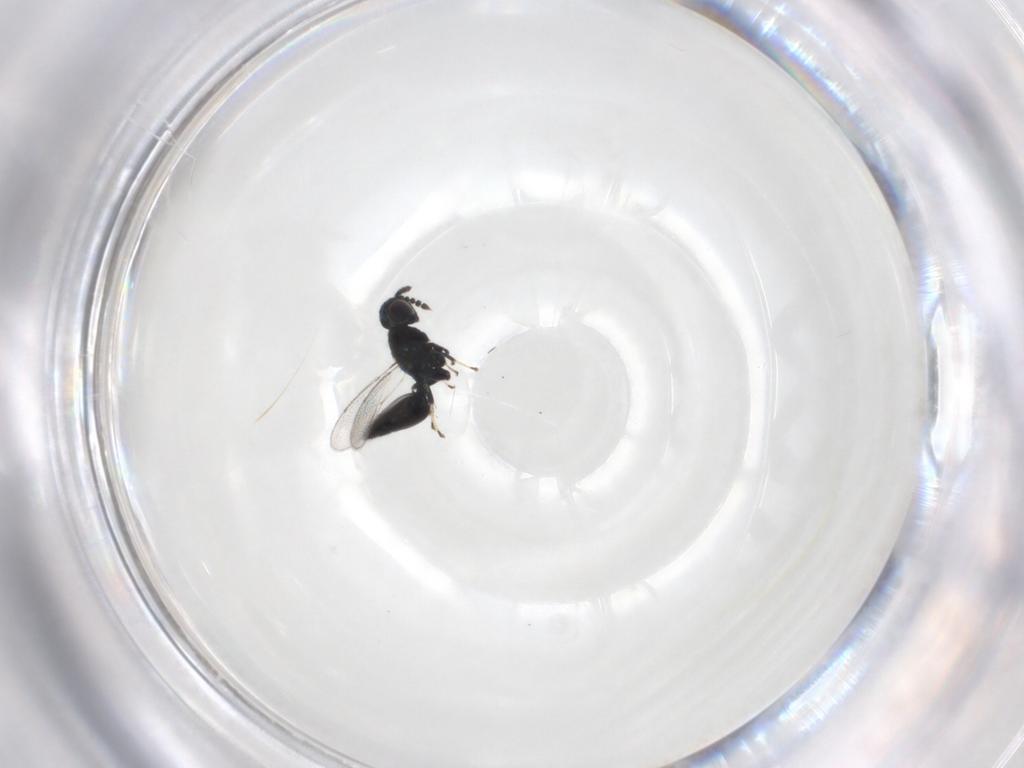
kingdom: Animalia
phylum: Arthropoda
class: Insecta
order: Hymenoptera
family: Eulophidae
